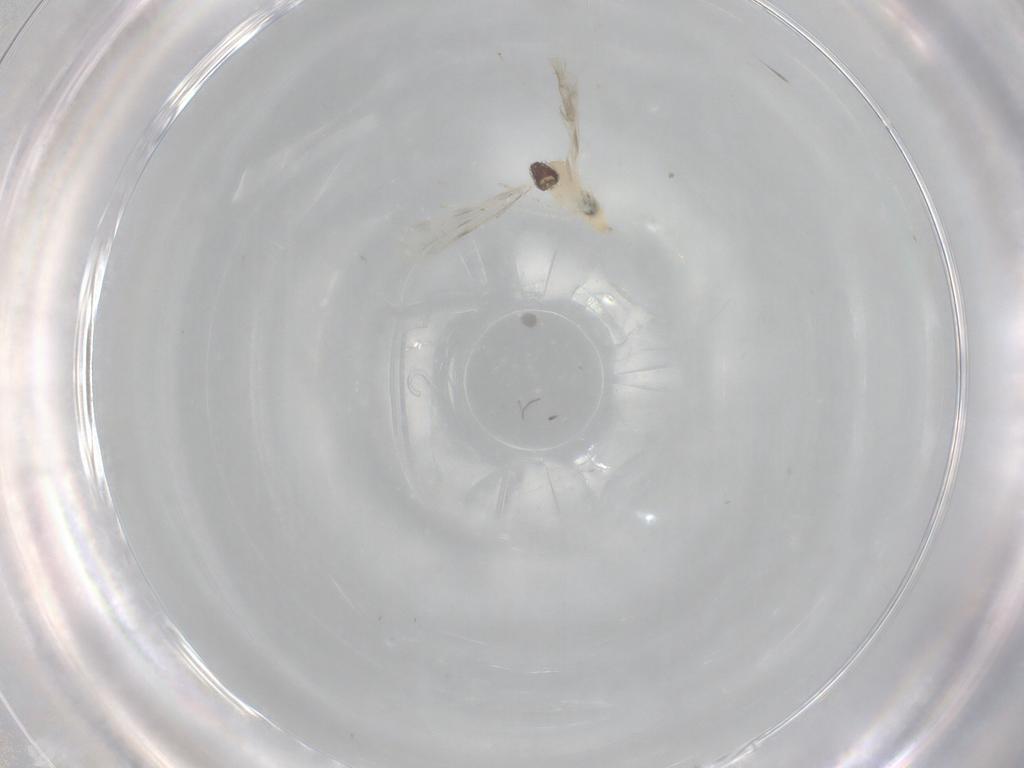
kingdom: Animalia
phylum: Arthropoda
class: Insecta
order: Diptera
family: Cecidomyiidae
